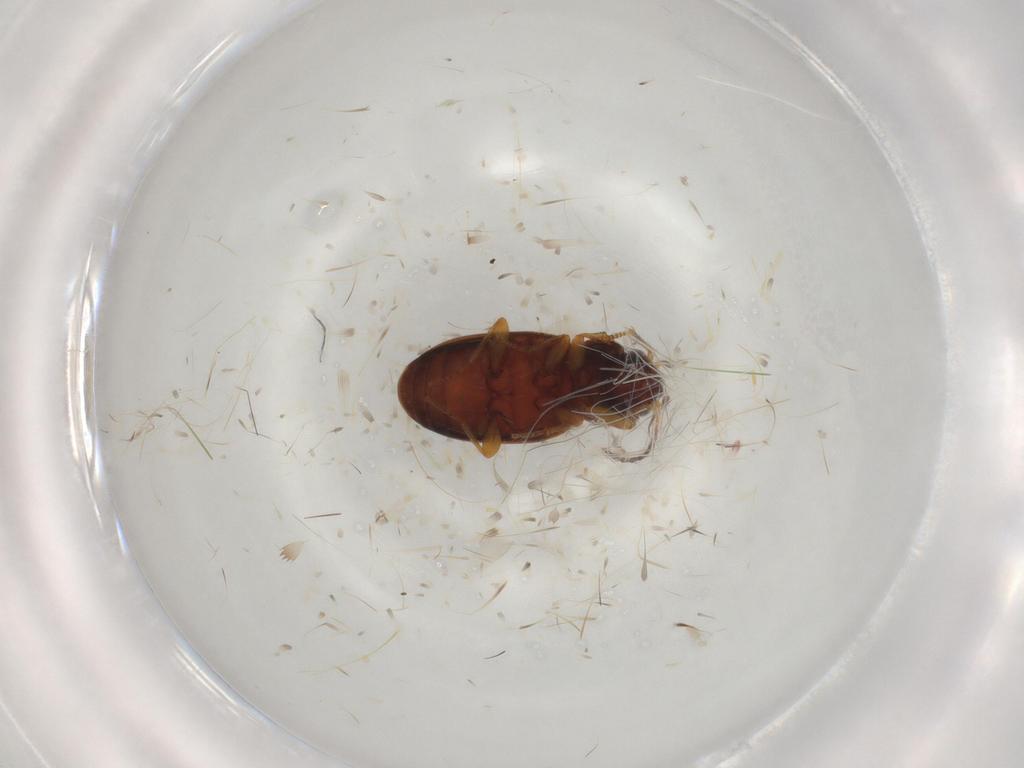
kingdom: Animalia
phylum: Arthropoda
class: Insecta
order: Coleoptera
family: Carabidae
